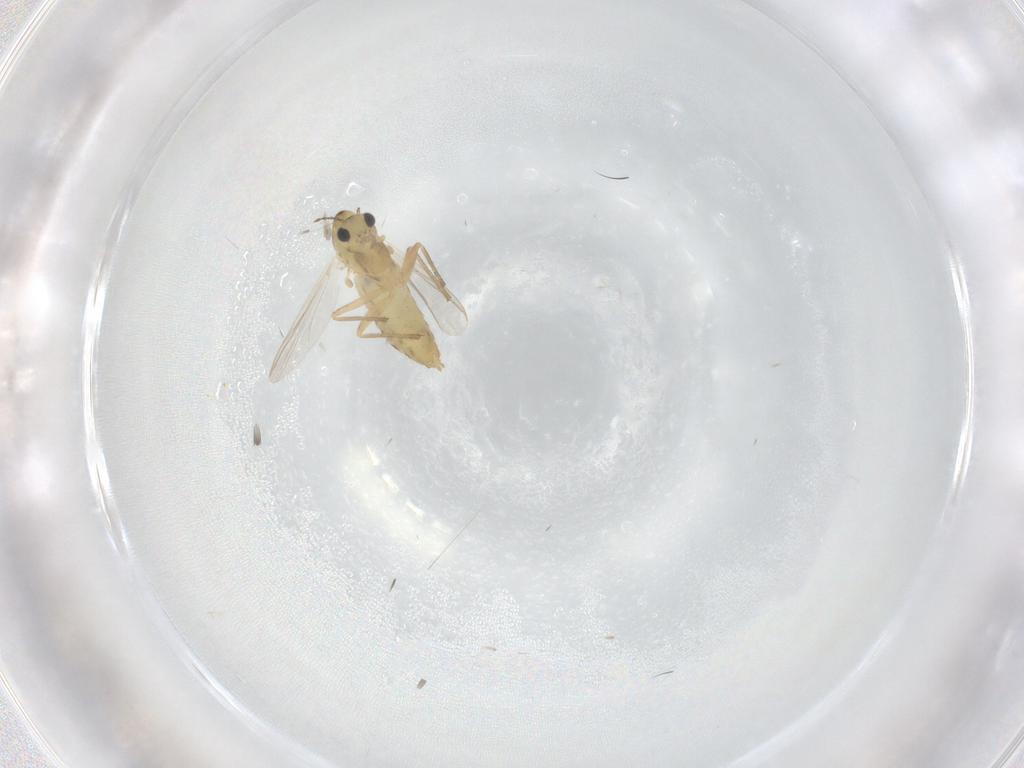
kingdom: Animalia
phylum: Arthropoda
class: Insecta
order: Diptera
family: Chironomidae
